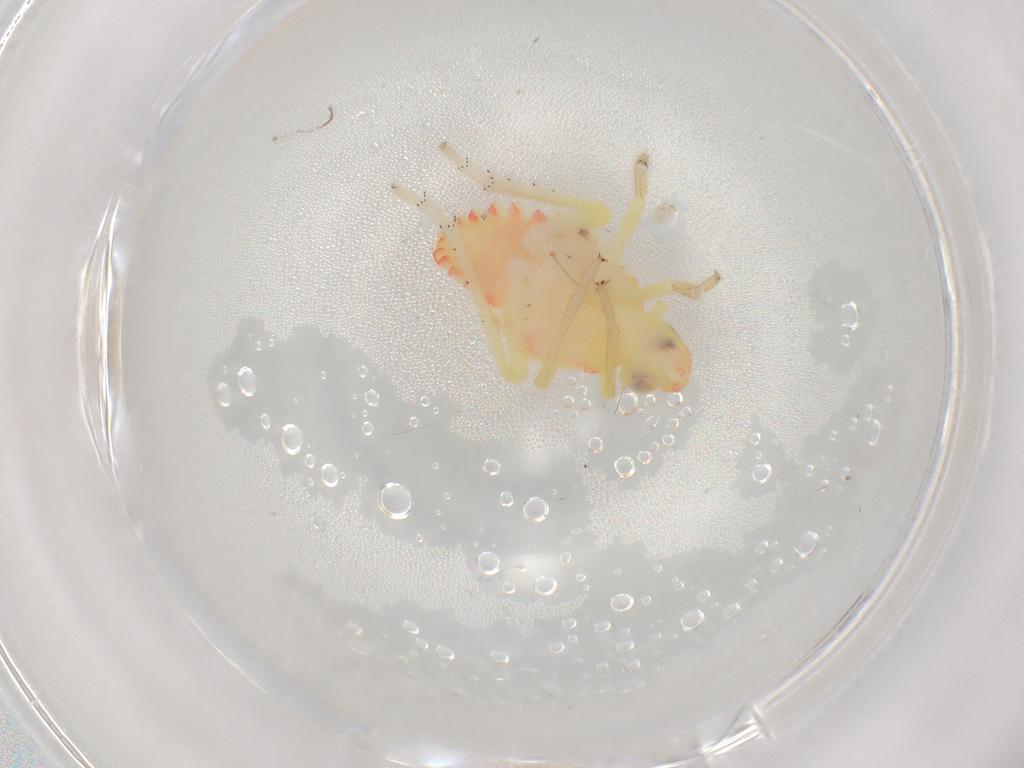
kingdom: Animalia
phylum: Arthropoda
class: Insecta
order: Hemiptera
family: Tropiduchidae
